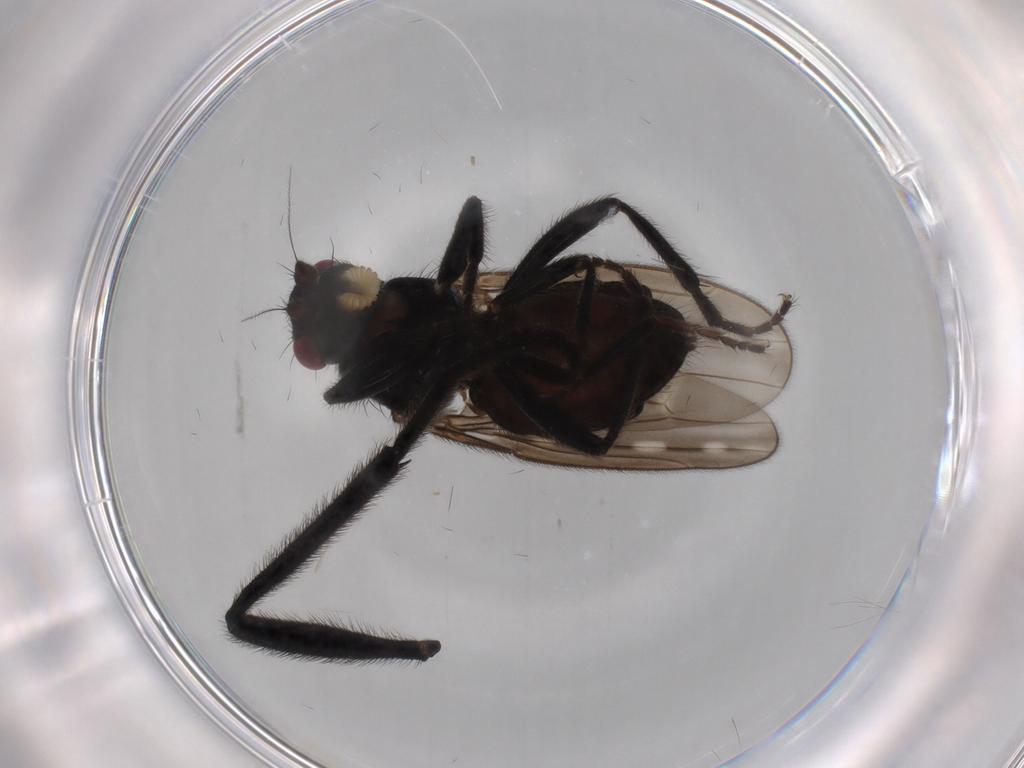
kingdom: Animalia
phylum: Arthropoda
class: Insecta
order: Diptera
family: Sphaeroceridae
